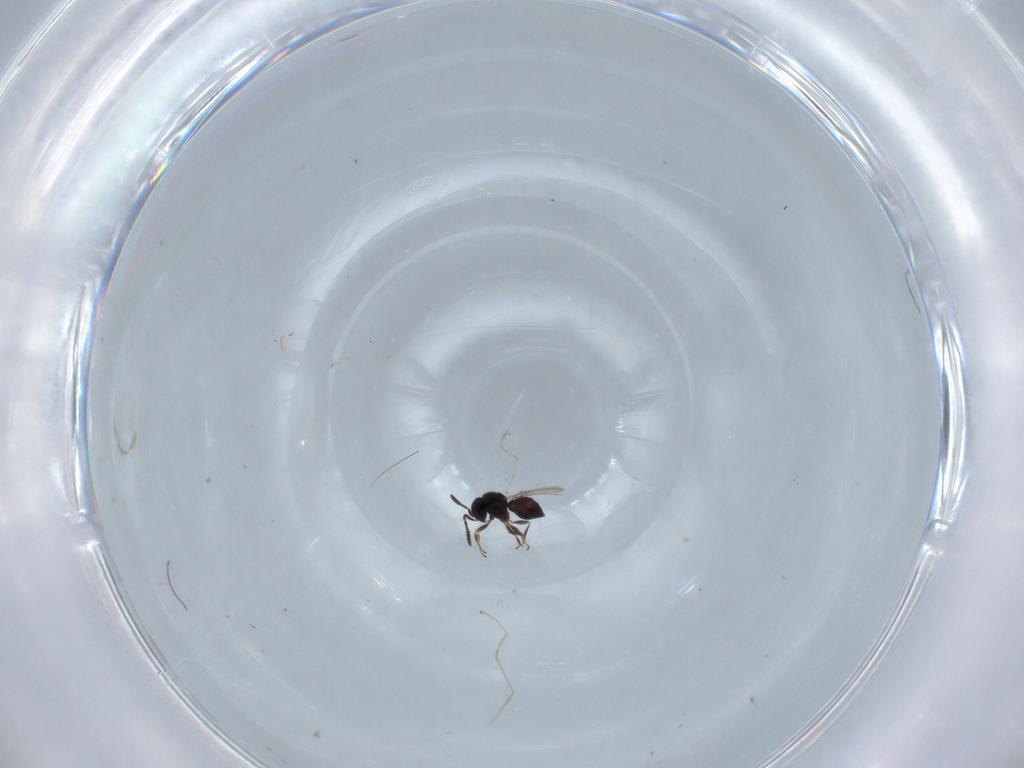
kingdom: Animalia
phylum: Arthropoda
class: Insecta
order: Hymenoptera
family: Scelionidae
